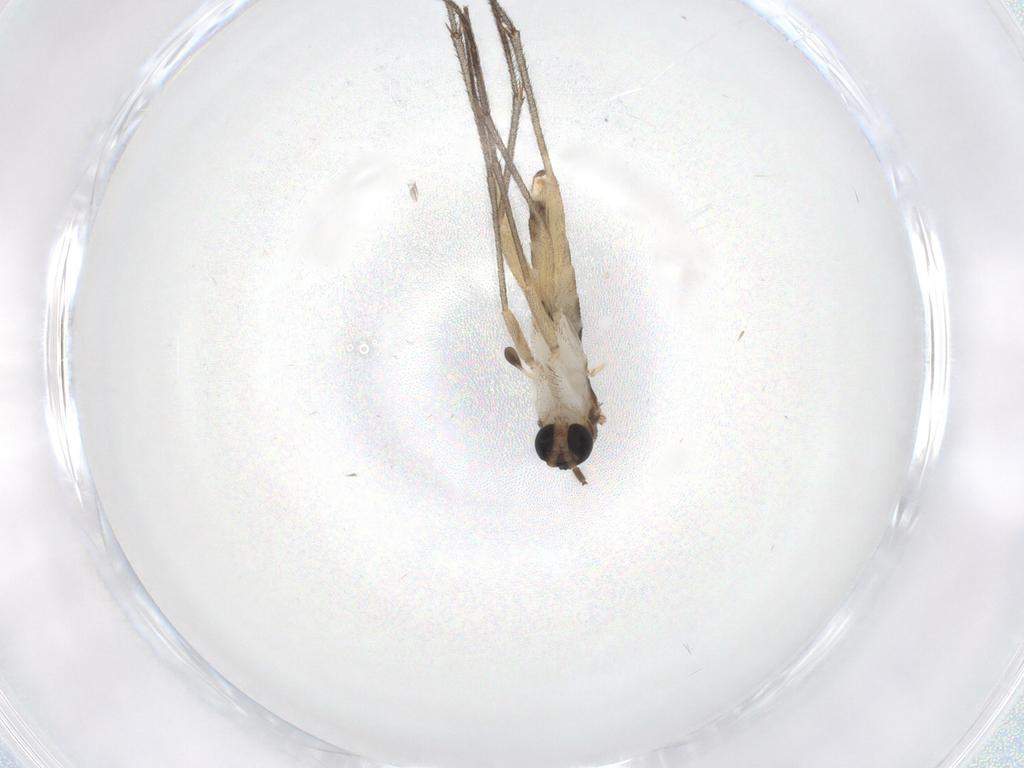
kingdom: Animalia
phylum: Arthropoda
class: Insecta
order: Diptera
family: Sciaridae
